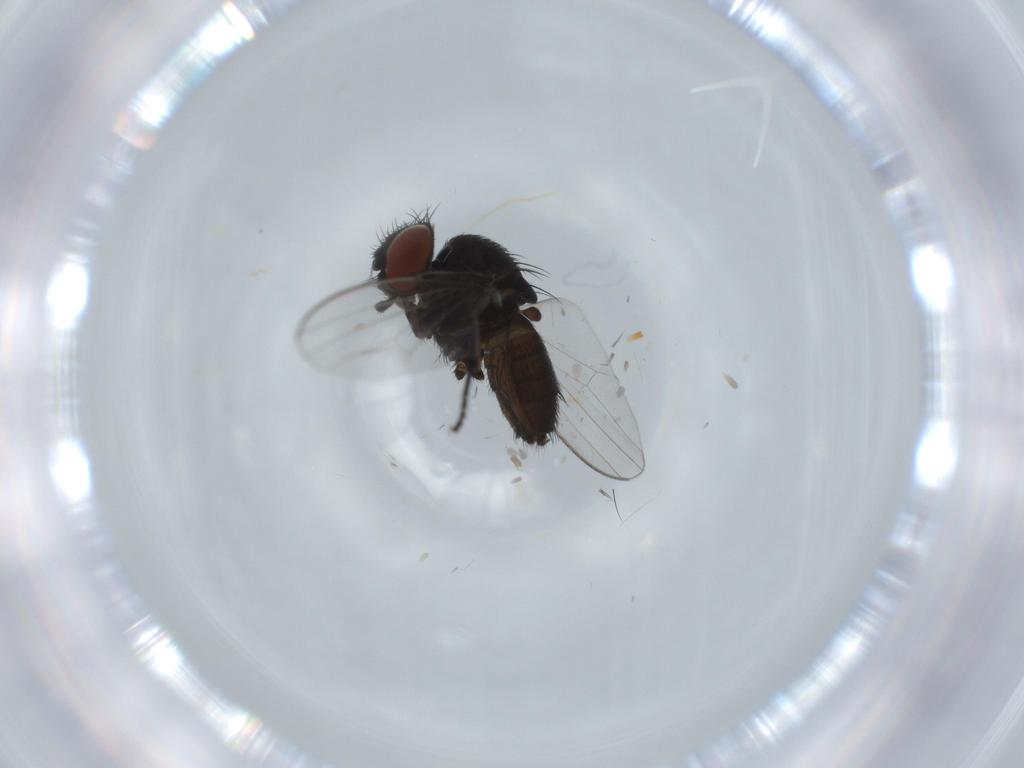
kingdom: Animalia
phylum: Arthropoda
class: Insecta
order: Diptera
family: Milichiidae
